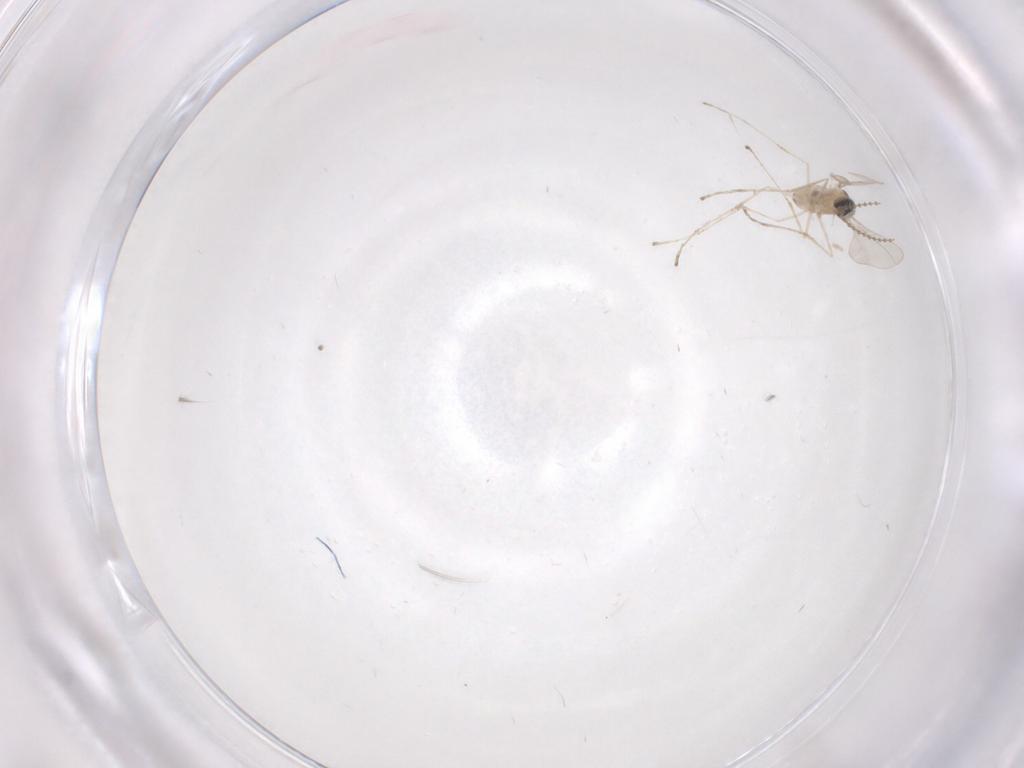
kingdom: Animalia
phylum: Arthropoda
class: Insecta
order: Diptera
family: Cecidomyiidae
